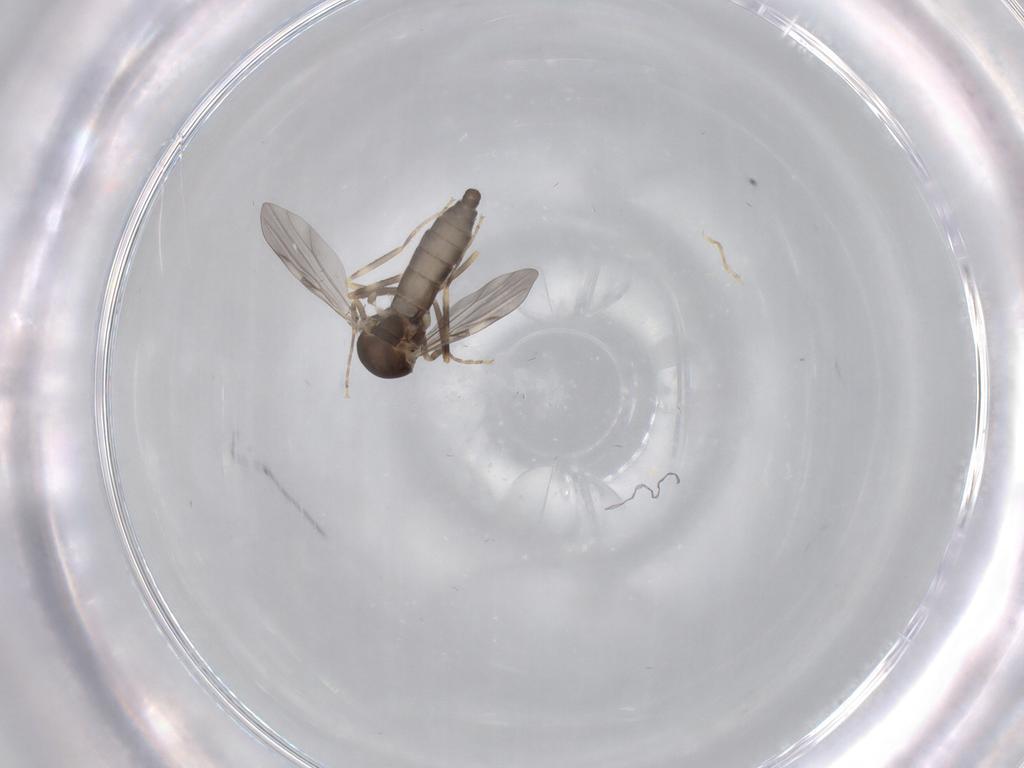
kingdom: Animalia
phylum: Arthropoda
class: Insecta
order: Diptera
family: Ceratopogonidae
